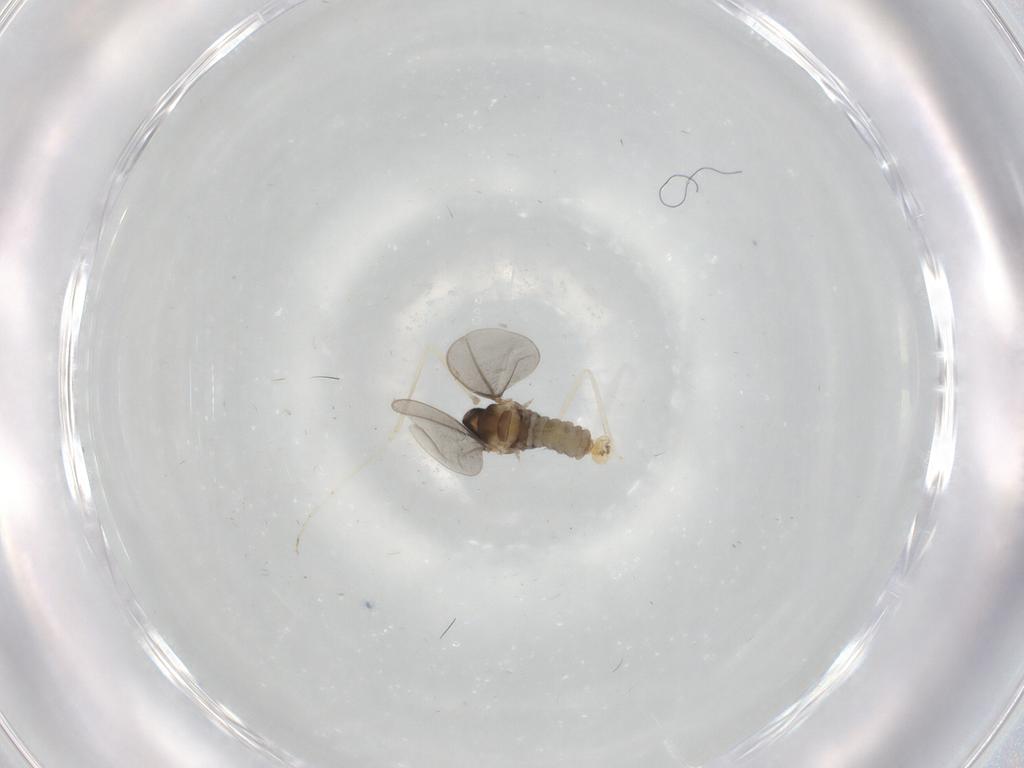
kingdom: Animalia
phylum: Arthropoda
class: Insecta
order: Diptera
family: Cecidomyiidae
